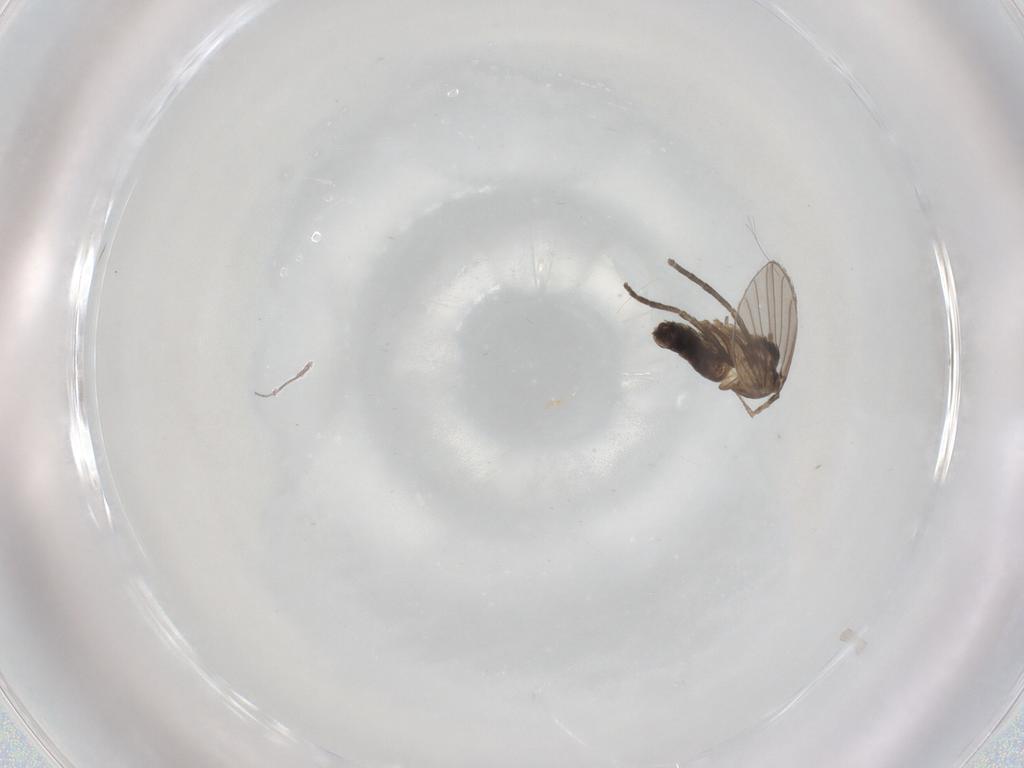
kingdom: Animalia
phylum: Arthropoda
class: Insecta
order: Diptera
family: Psychodidae
